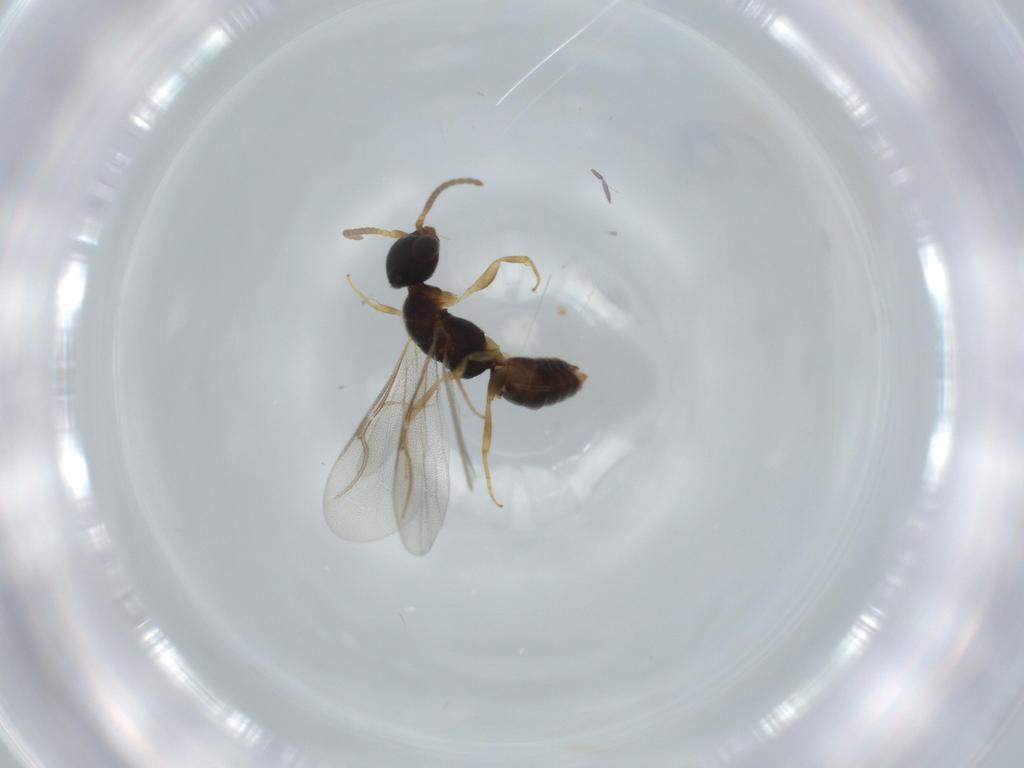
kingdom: Animalia
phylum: Arthropoda
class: Insecta
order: Hymenoptera
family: Bethylidae
